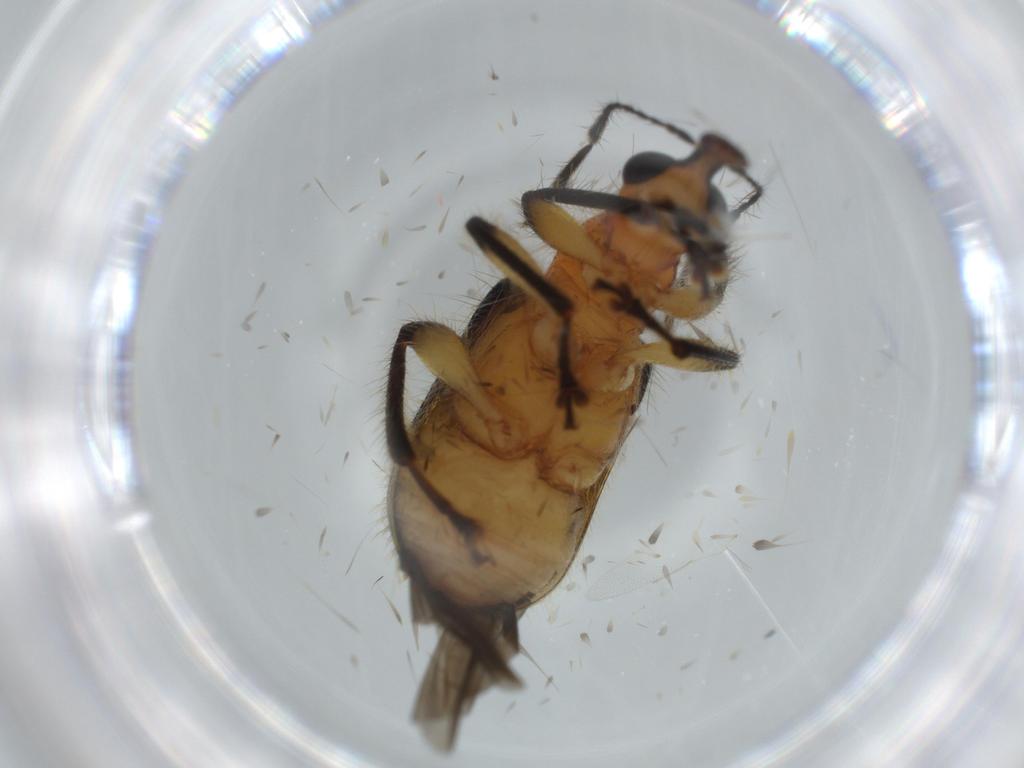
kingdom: Animalia
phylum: Arthropoda
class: Insecta
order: Coleoptera
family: Attelabidae
